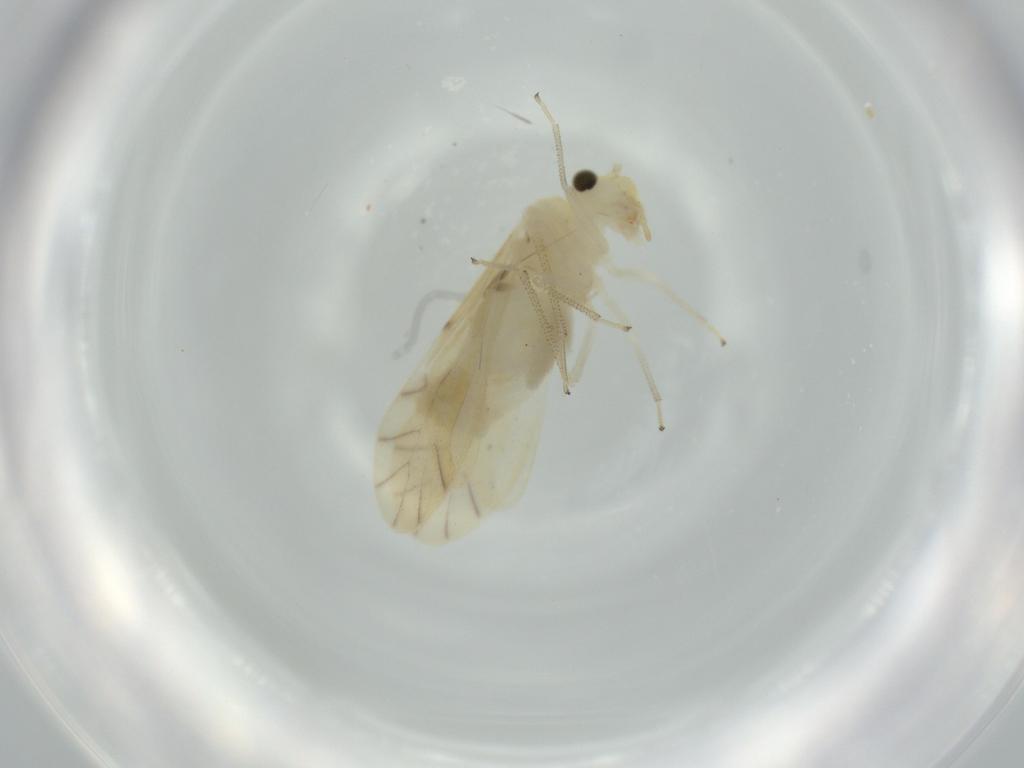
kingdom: Animalia
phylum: Arthropoda
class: Insecta
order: Psocodea
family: Caeciliusidae
